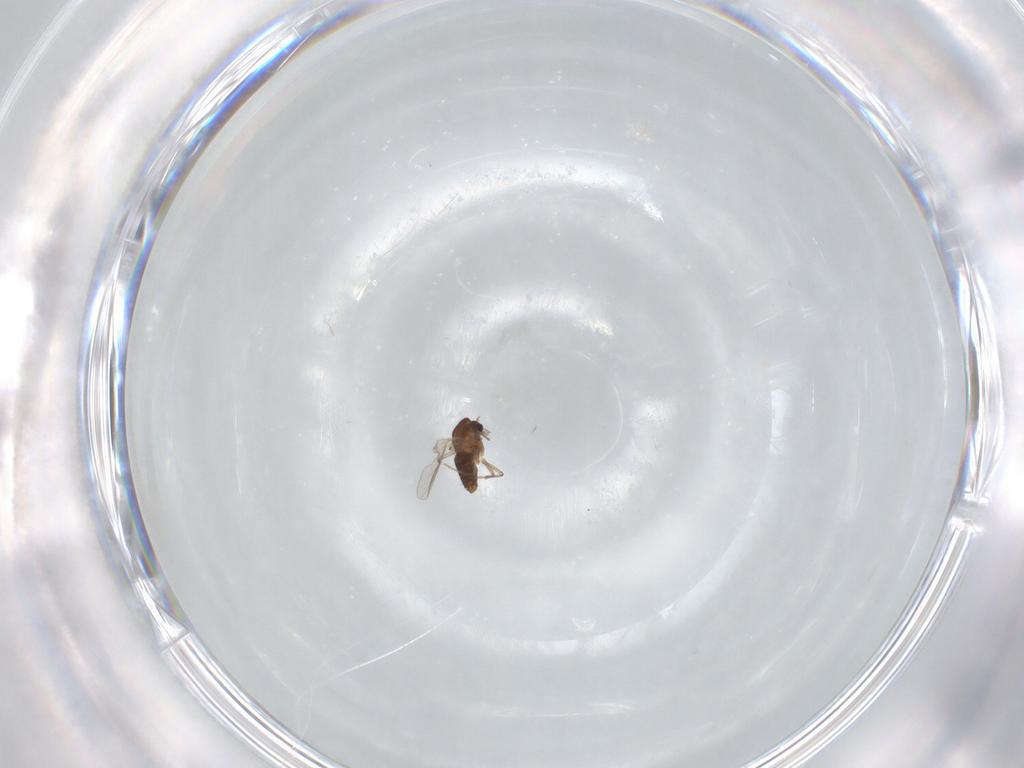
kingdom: Animalia
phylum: Arthropoda
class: Insecta
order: Diptera
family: Chironomidae
